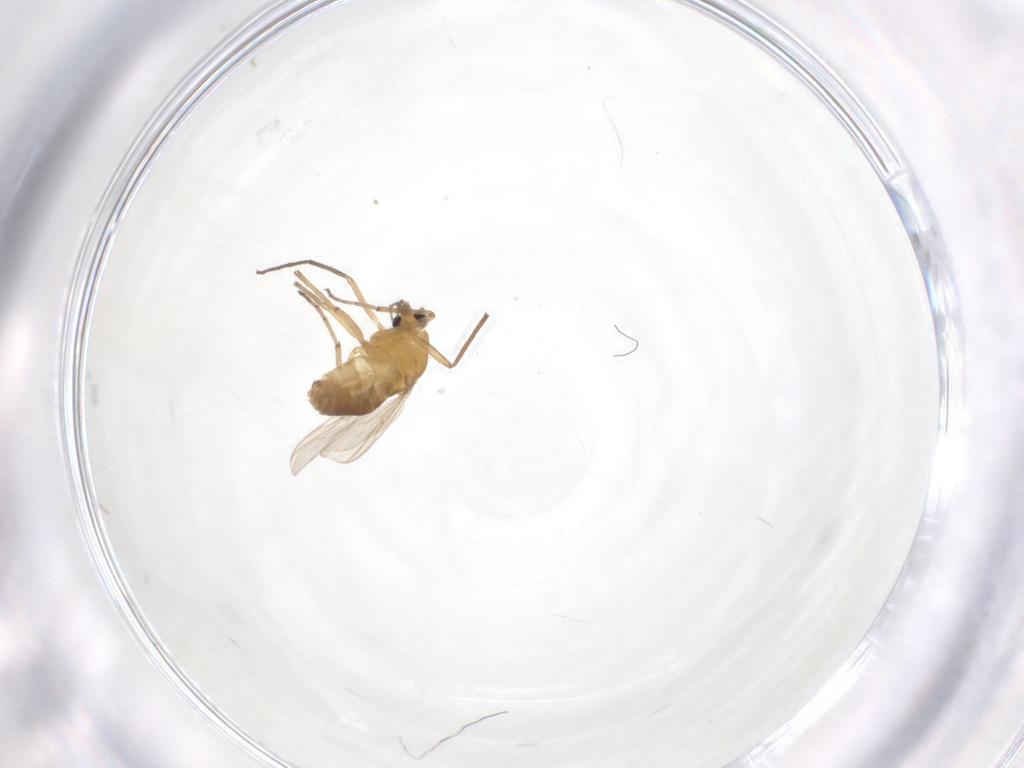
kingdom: Animalia
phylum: Arthropoda
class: Insecta
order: Diptera
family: Chironomidae
